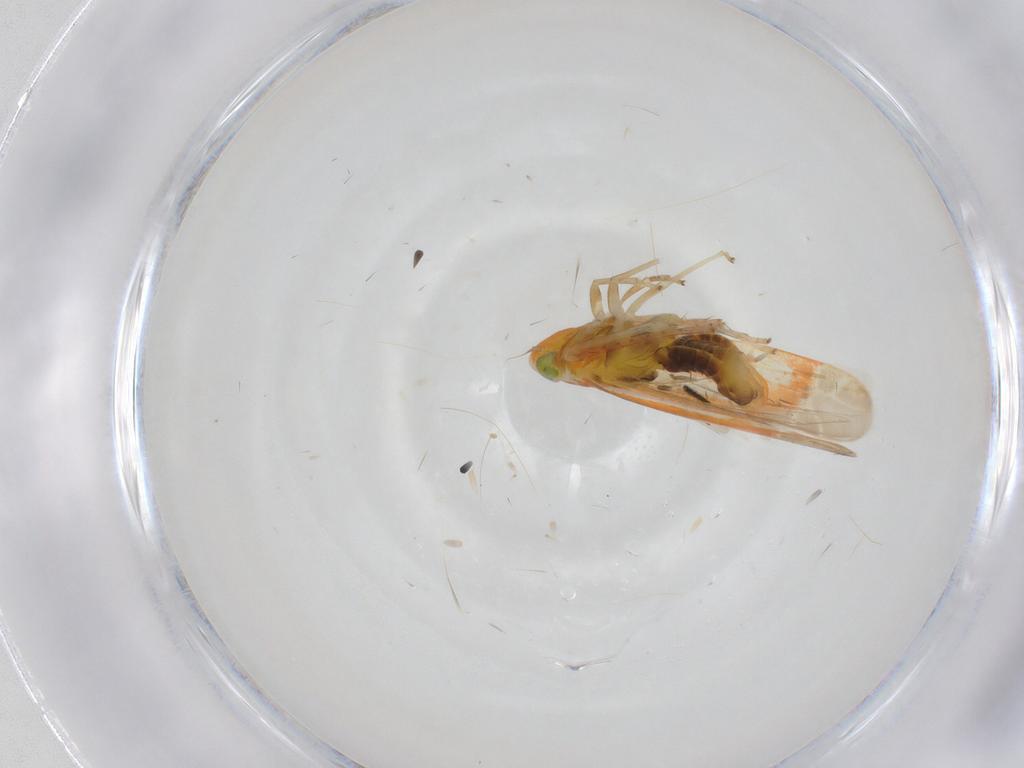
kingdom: Animalia
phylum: Arthropoda
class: Insecta
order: Hemiptera
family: Cicadellidae
